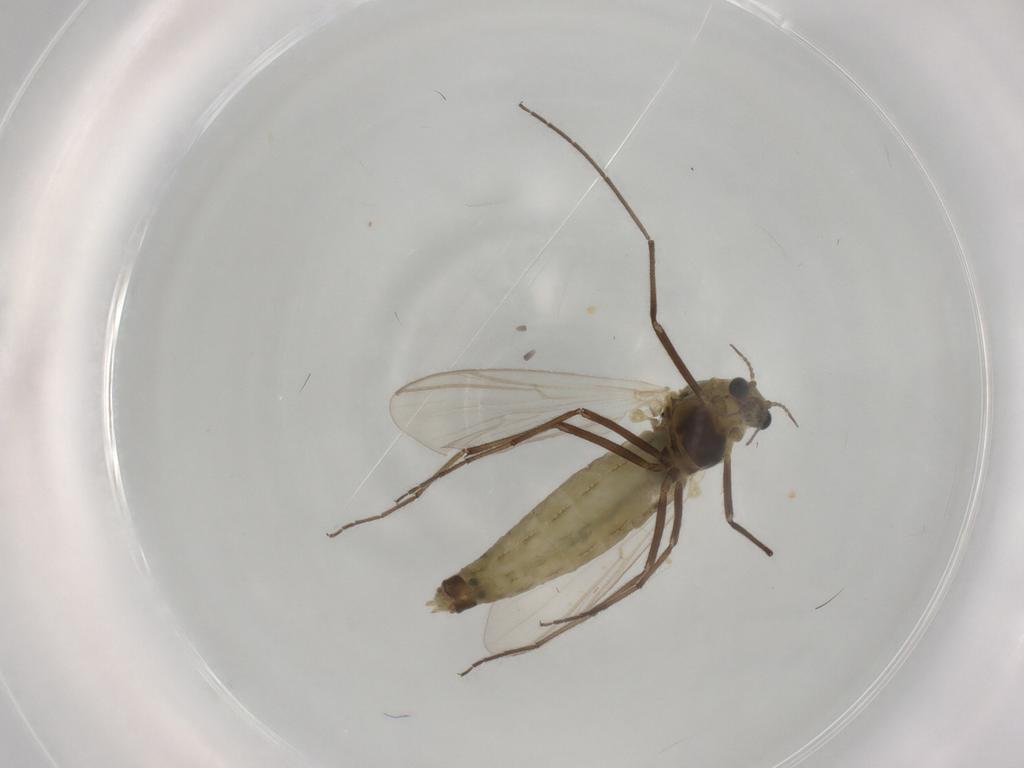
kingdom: Animalia
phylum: Arthropoda
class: Insecta
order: Diptera
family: Chironomidae
